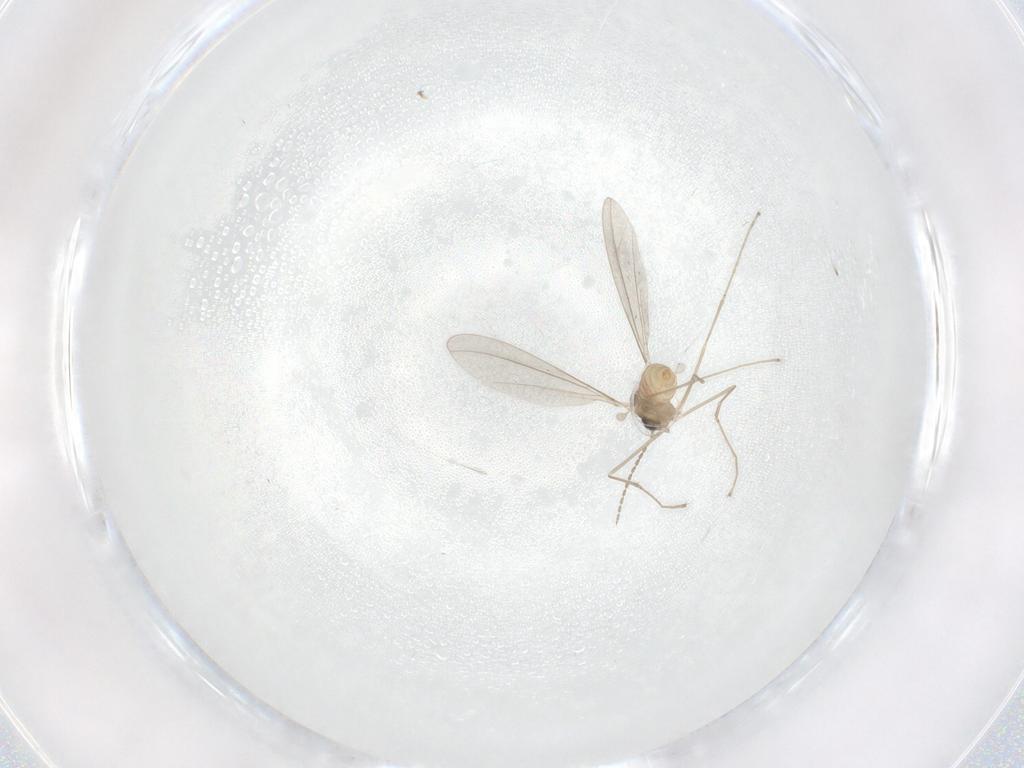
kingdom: Animalia
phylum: Arthropoda
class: Insecta
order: Diptera
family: Cecidomyiidae
